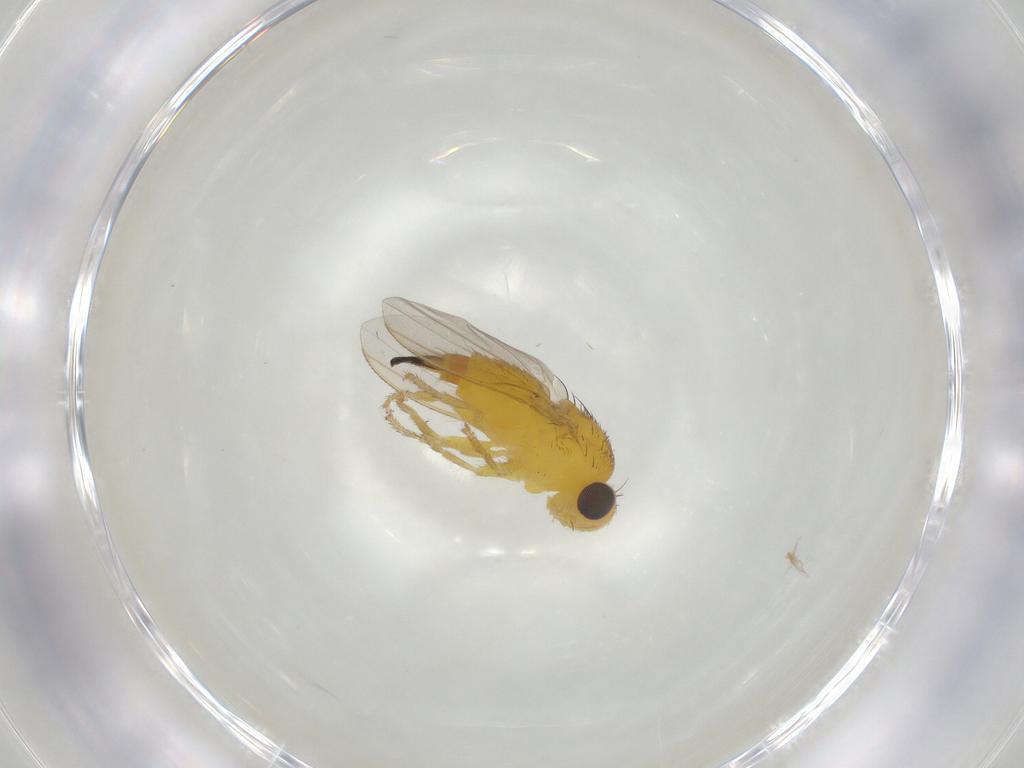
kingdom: Animalia
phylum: Arthropoda
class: Insecta
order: Diptera
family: Fergusoninidae
